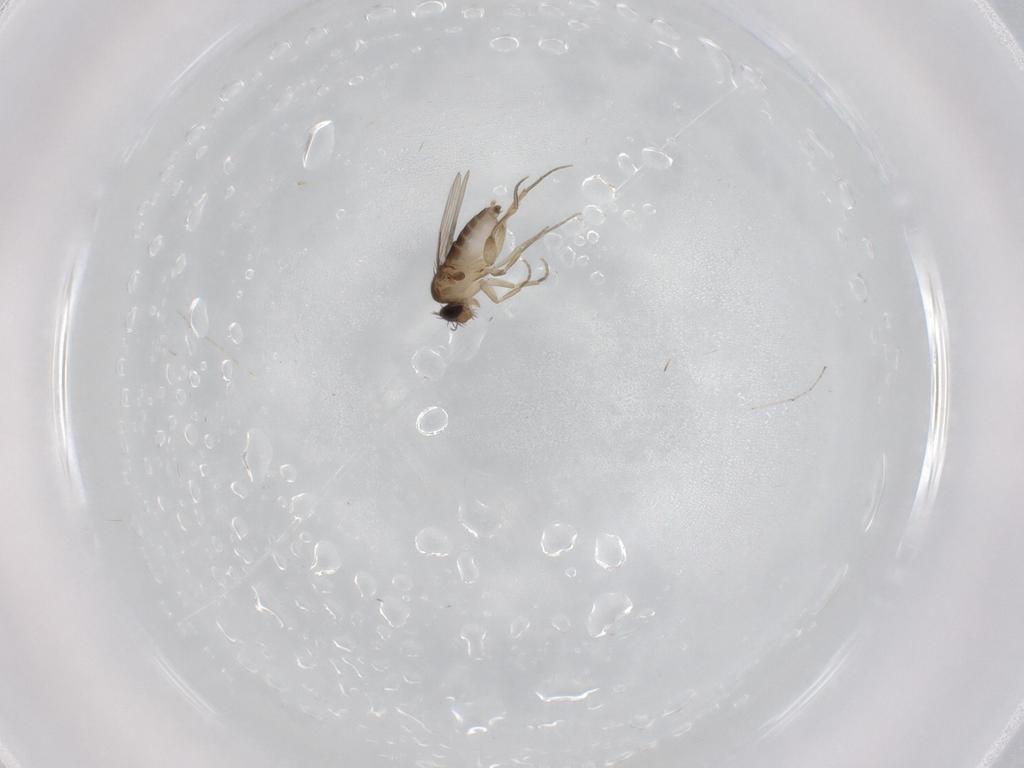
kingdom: Animalia
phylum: Arthropoda
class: Insecta
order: Diptera
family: Phoridae
